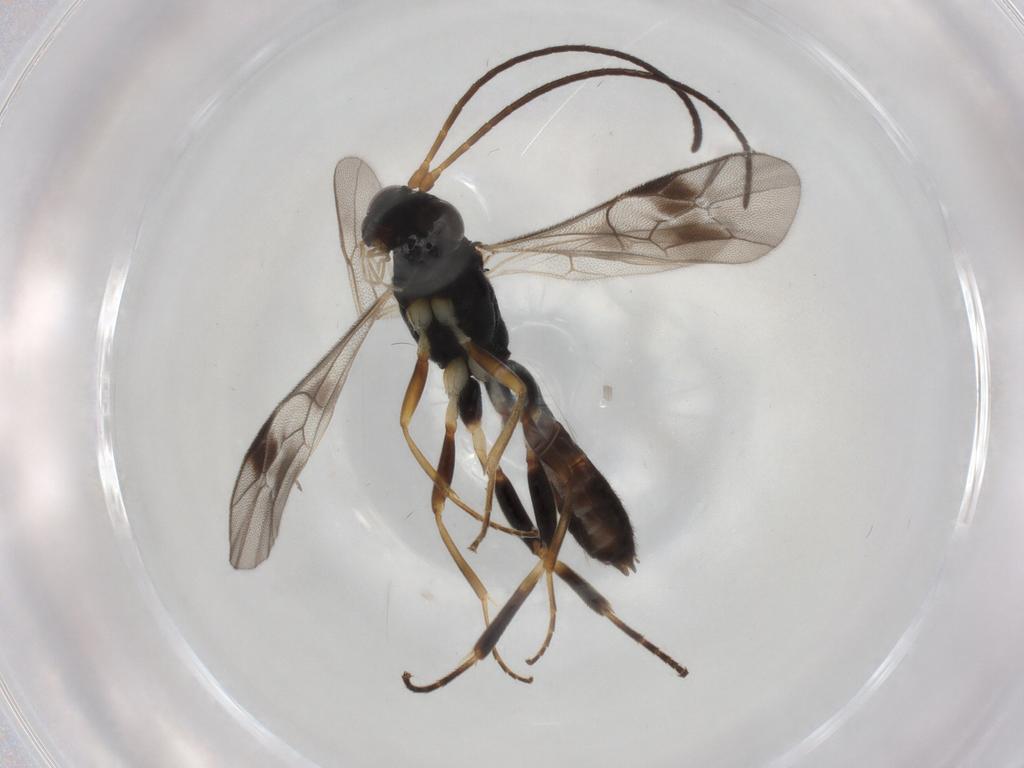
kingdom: Animalia
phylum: Arthropoda
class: Insecta
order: Hymenoptera
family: Ichneumonidae
